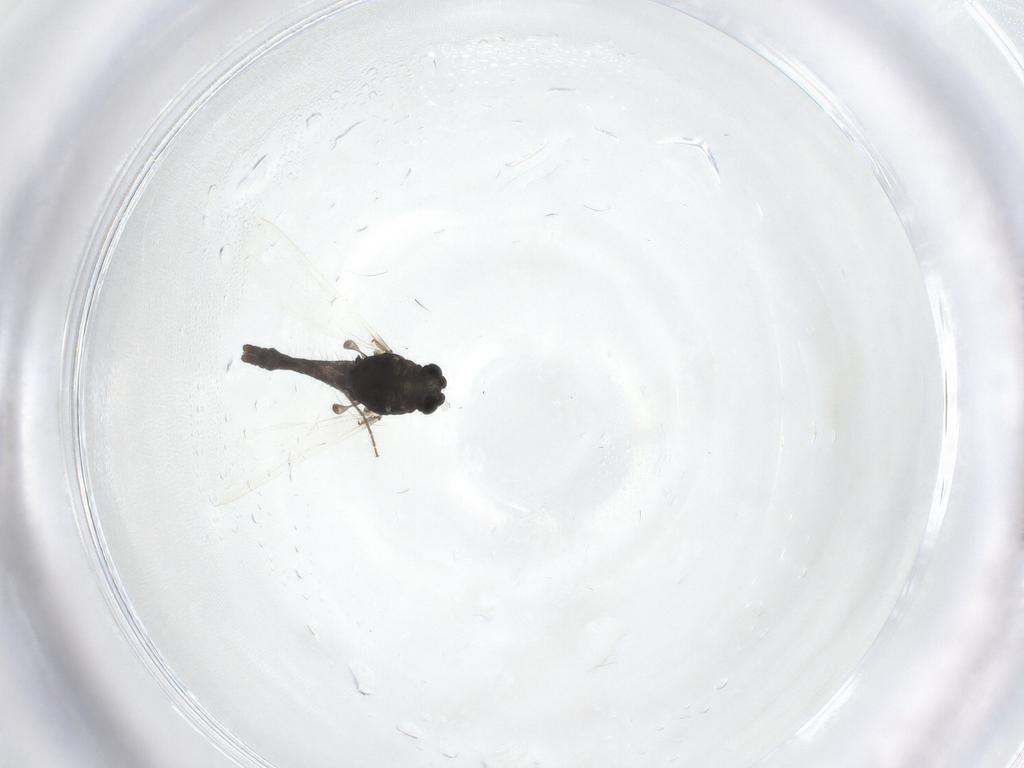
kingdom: Animalia
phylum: Arthropoda
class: Insecta
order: Diptera
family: Chironomidae
